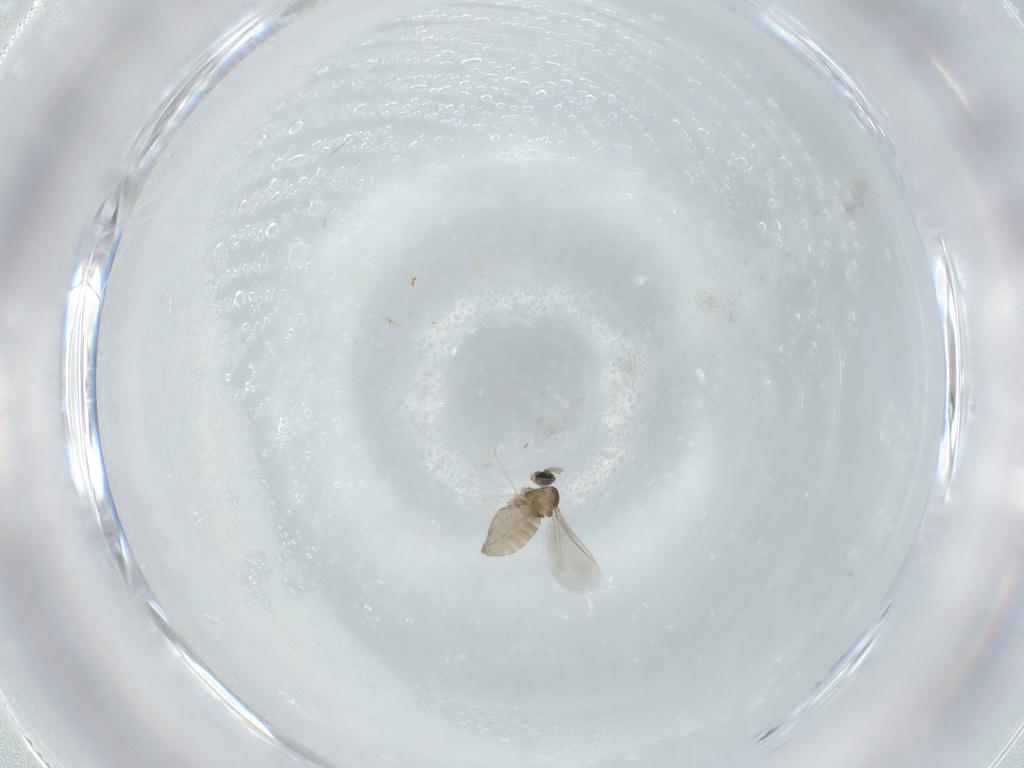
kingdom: Animalia
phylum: Arthropoda
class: Insecta
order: Diptera
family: Cecidomyiidae
